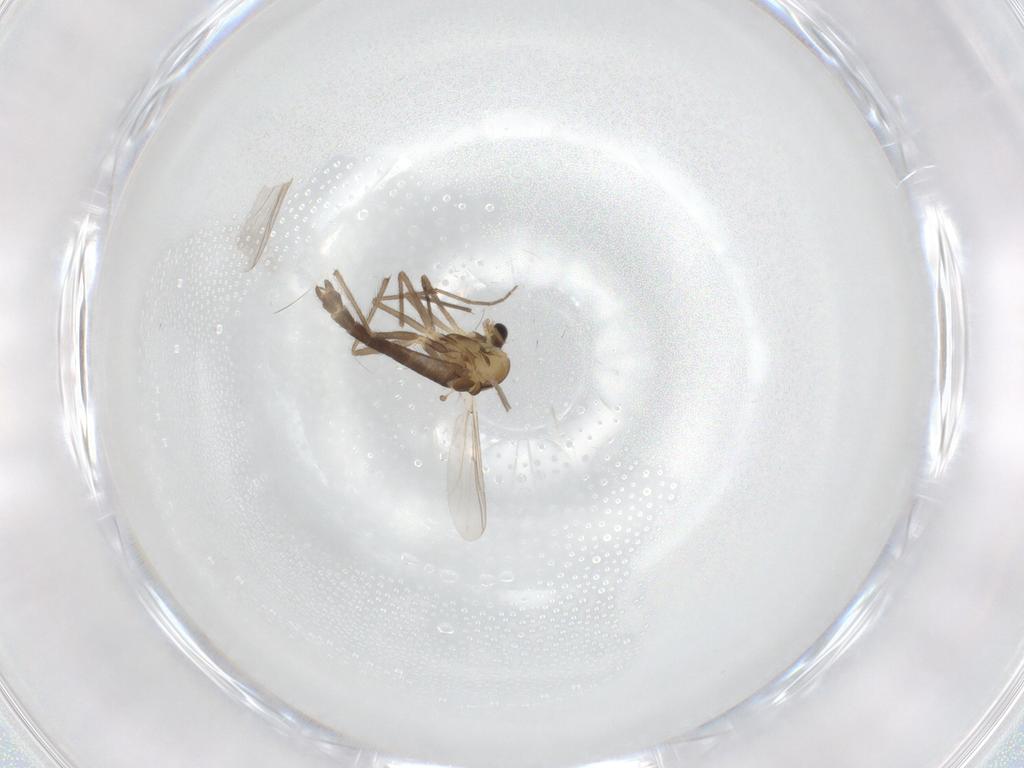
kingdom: Animalia
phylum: Arthropoda
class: Insecta
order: Diptera
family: Chironomidae
